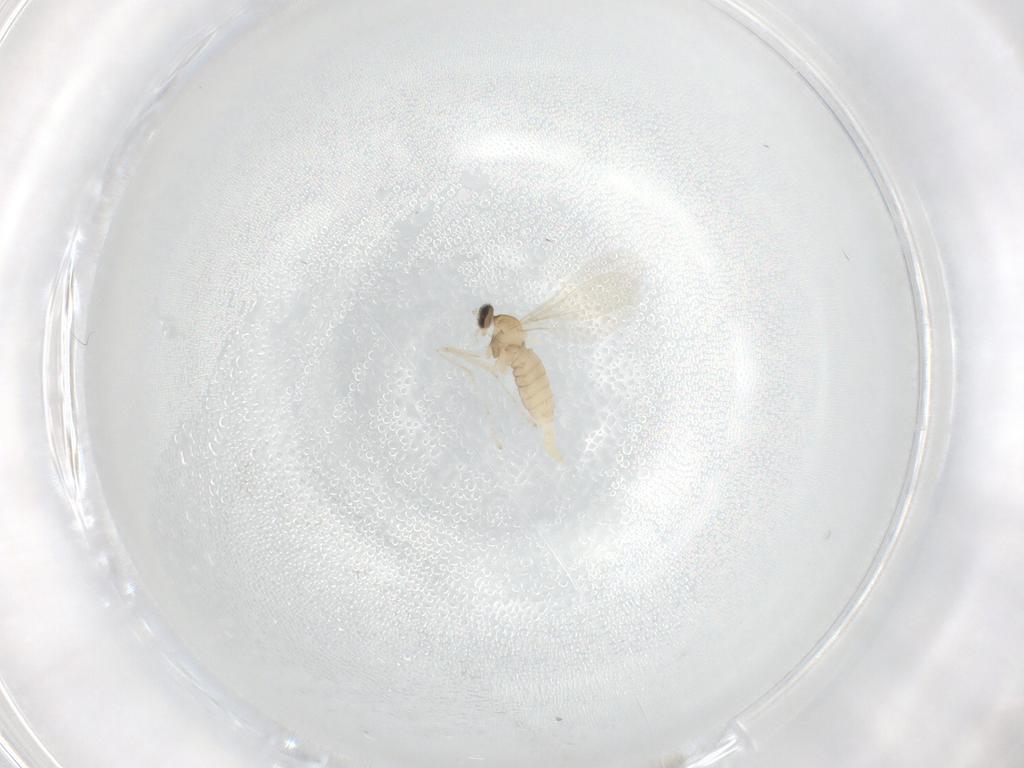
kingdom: Animalia
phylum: Arthropoda
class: Insecta
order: Diptera
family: Cecidomyiidae
